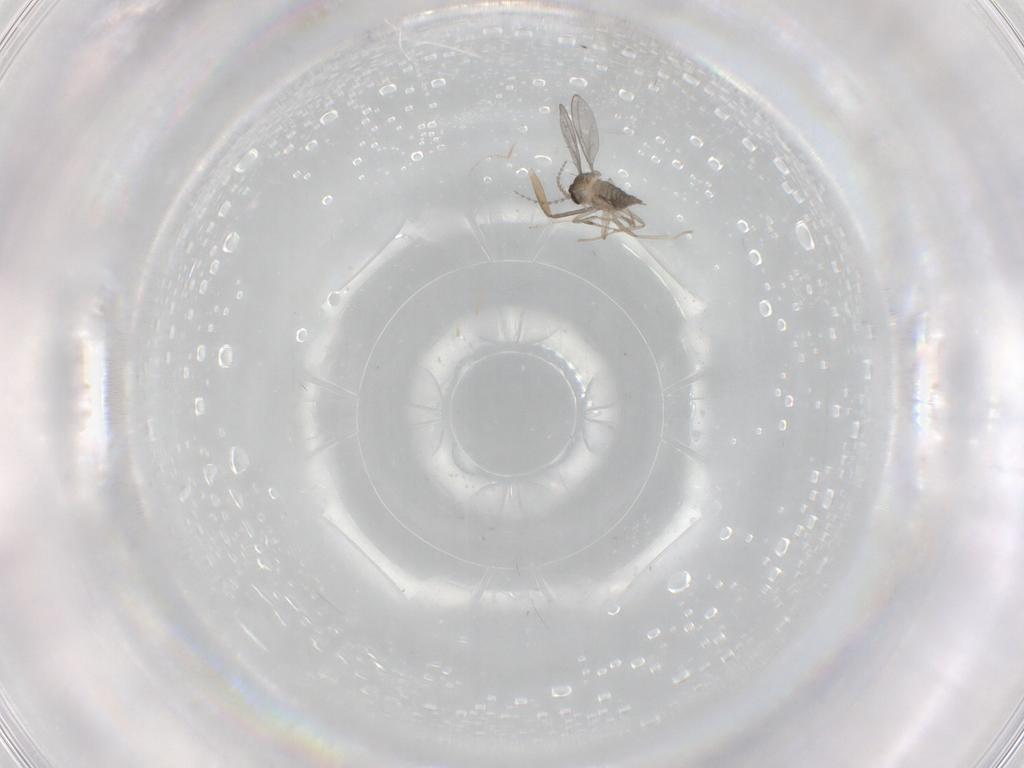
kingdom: Animalia
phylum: Arthropoda
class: Insecta
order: Diptera
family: Cecidomyiidae
